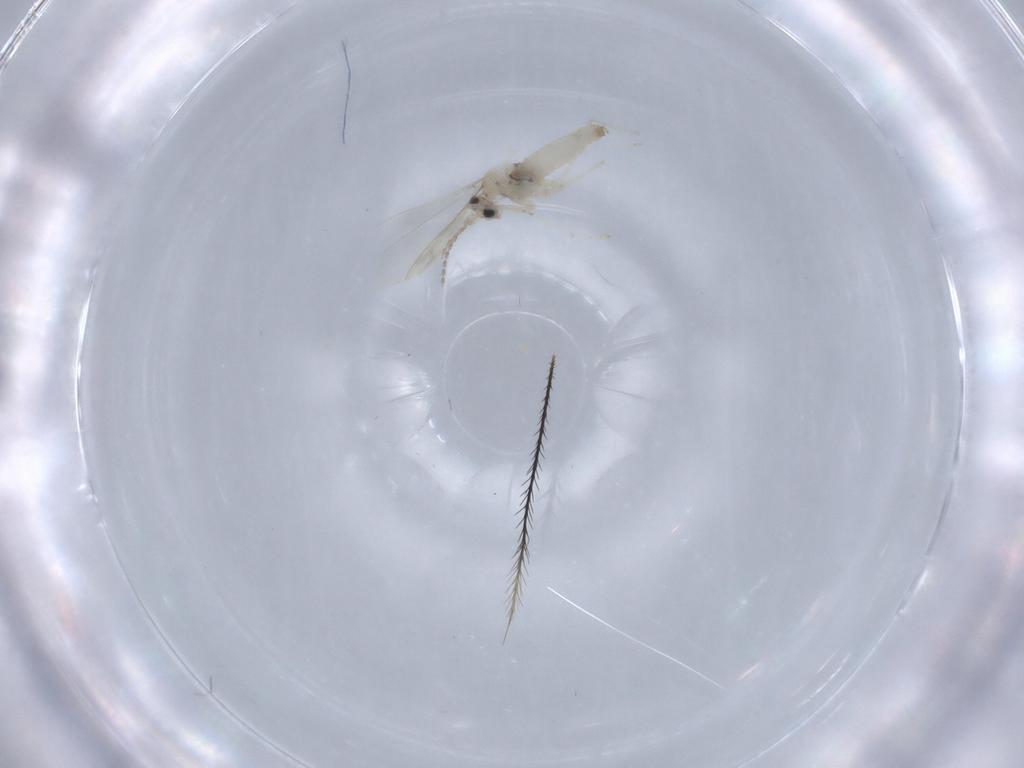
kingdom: Animalia
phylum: Arthropoda
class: Insecta
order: Diptera
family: Cecidomyiidae
